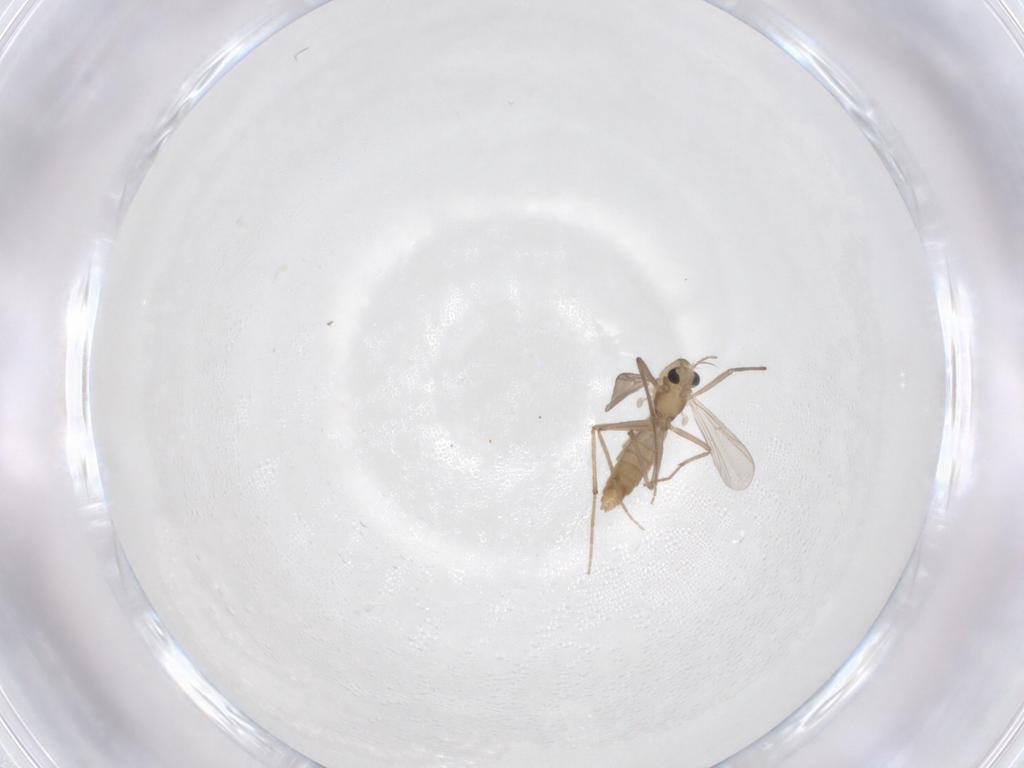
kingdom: Animalia
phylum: Arthropoda
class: Insecta
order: Diptera
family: Chironomidae
